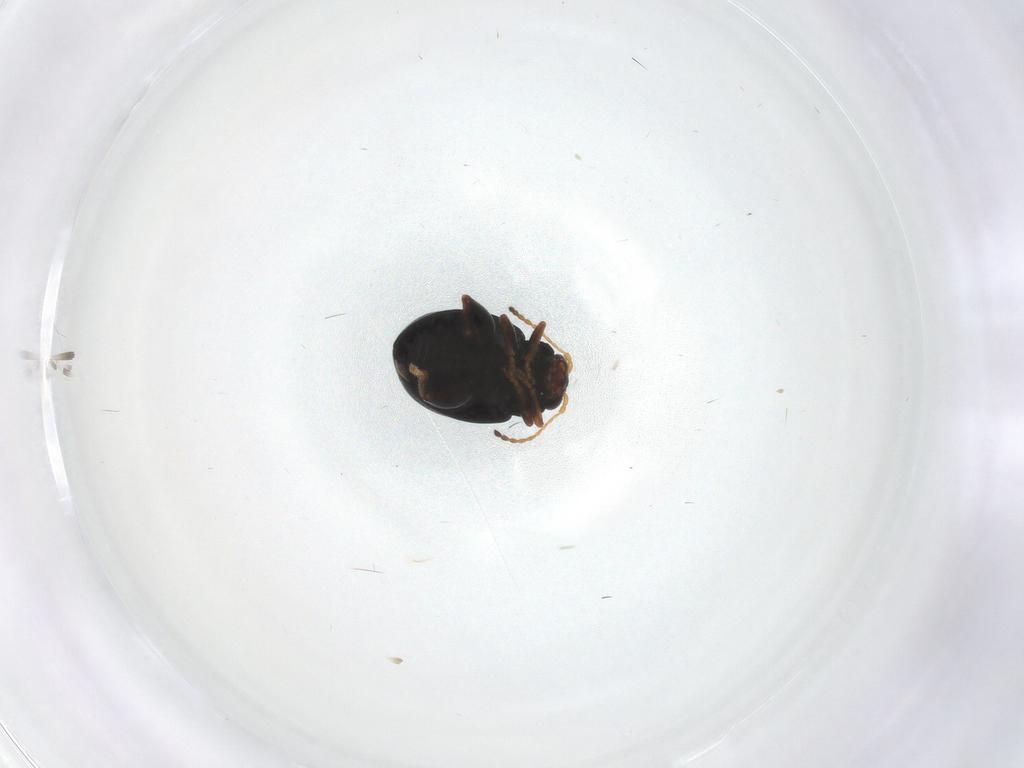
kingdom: Animalia
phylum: Arthropoda
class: Insecta
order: Coleoptera
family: Chrysomelidae
